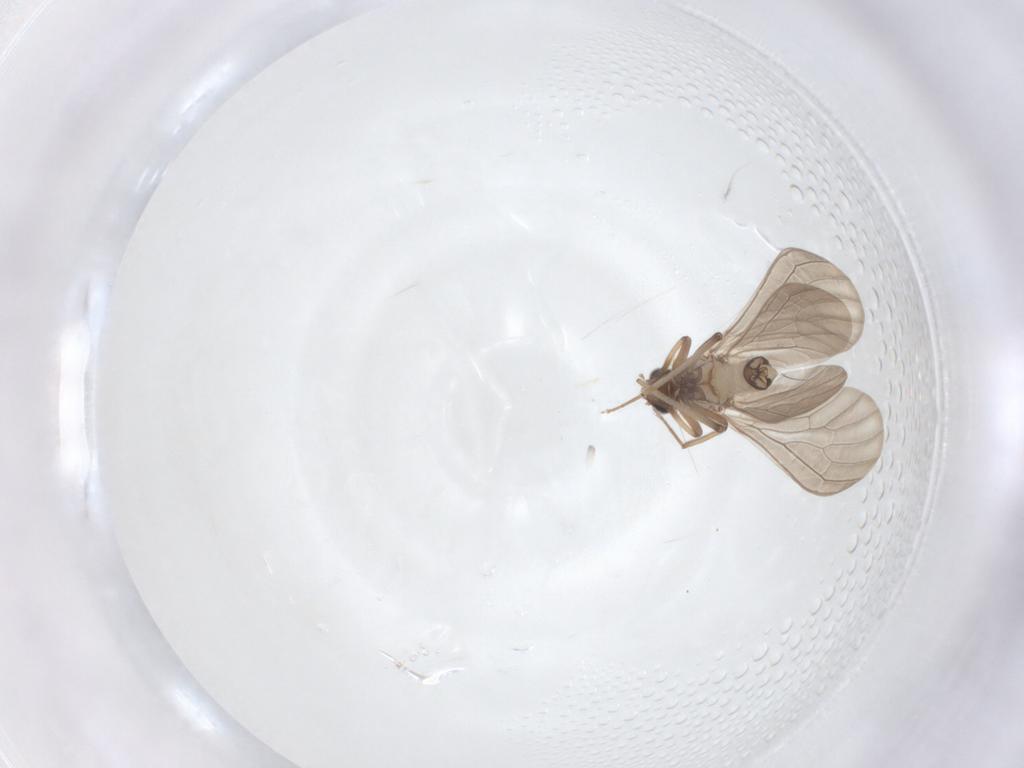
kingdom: Animalia
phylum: Arthropoda
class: Insecta
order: Neuroptera
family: Coniopterygidae
